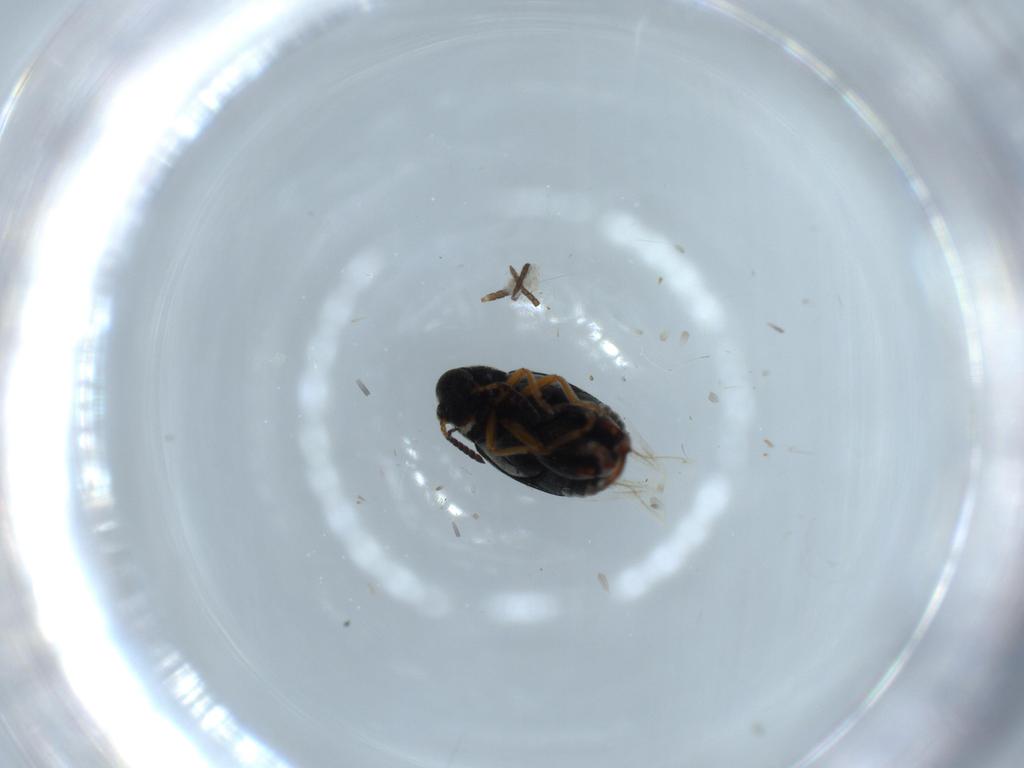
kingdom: Animalia
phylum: Arthropoda
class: Insecta
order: Coleoptera
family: Chrysomelidae
